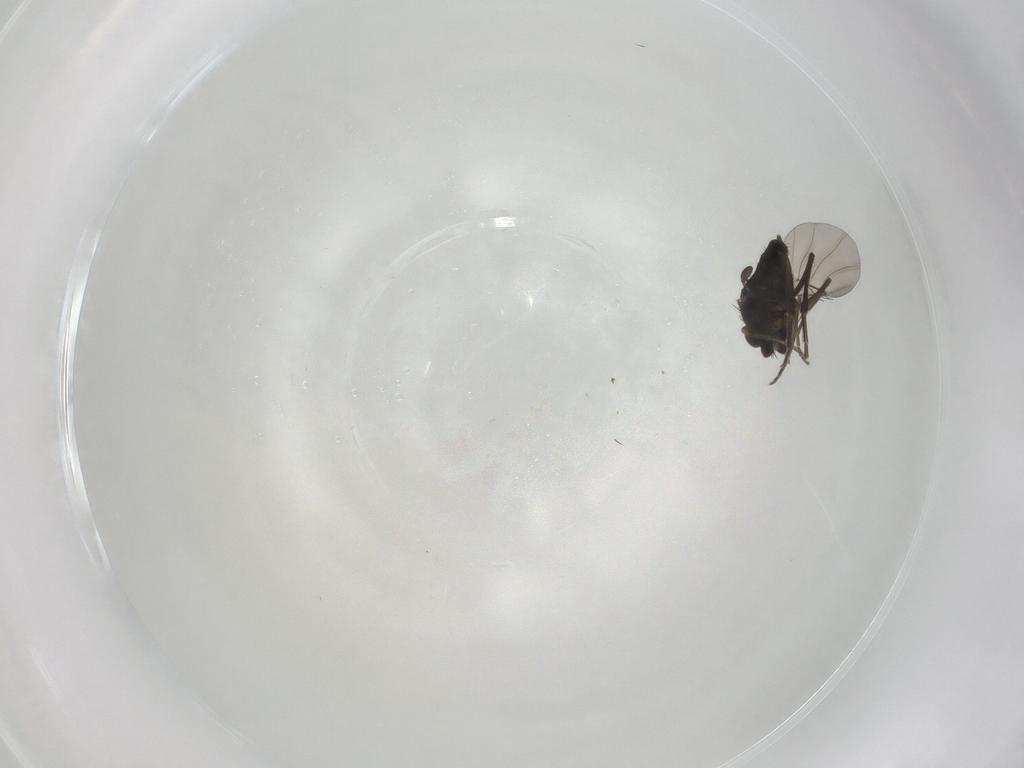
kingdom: Animalia
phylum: Arthropoda
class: Insecta
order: Diptera
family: Phoridae
